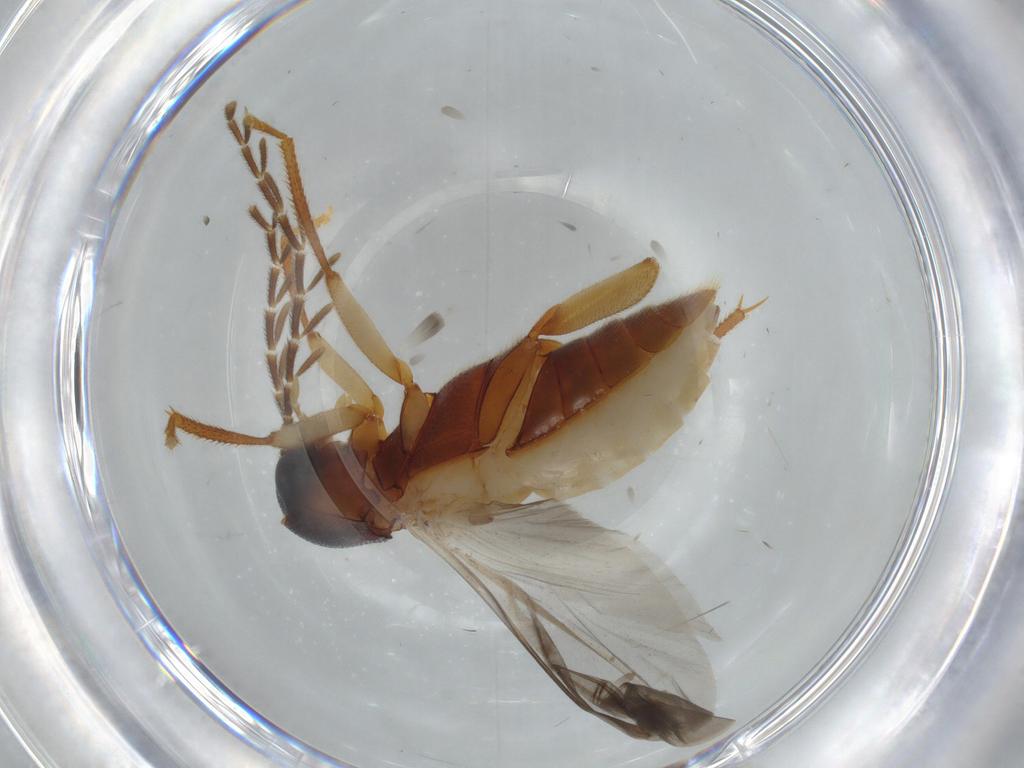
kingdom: Animalia
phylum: Arthropoda
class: Insecta
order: Coleoptera
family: Ptilodactylidae
